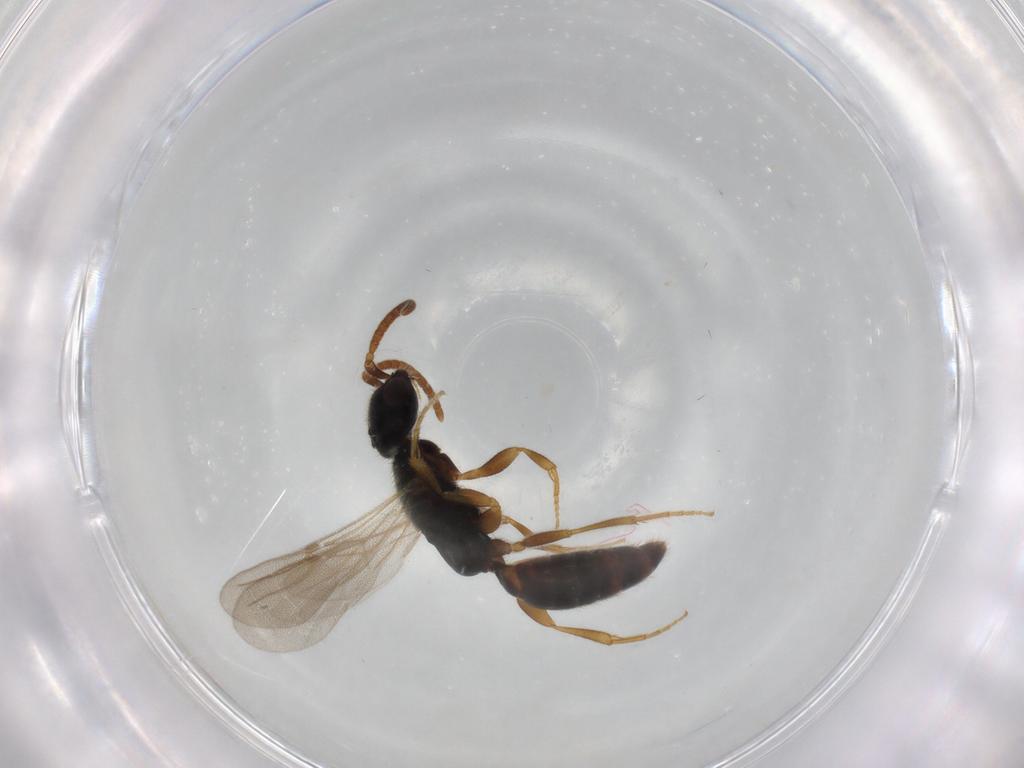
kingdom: Animalia
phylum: Arthropoda
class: Insecta
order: Hymenoptera
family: Bethylidae
